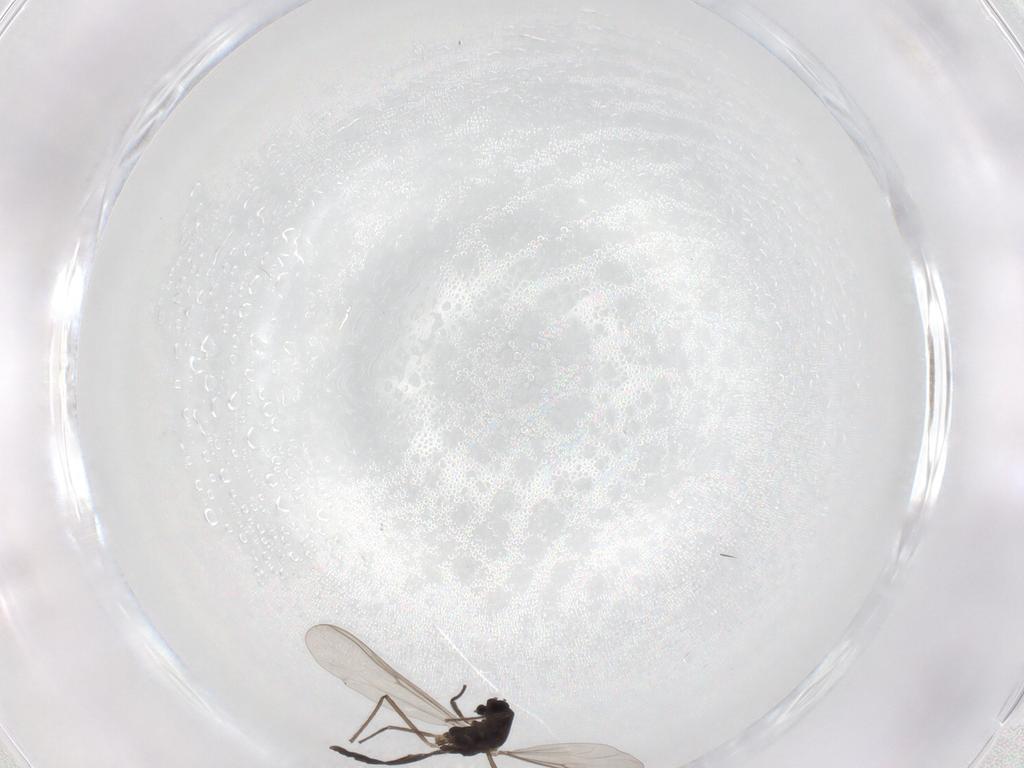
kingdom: Animalia
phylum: Arthropoda
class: Insecta
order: Diptera
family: Chironomidae
